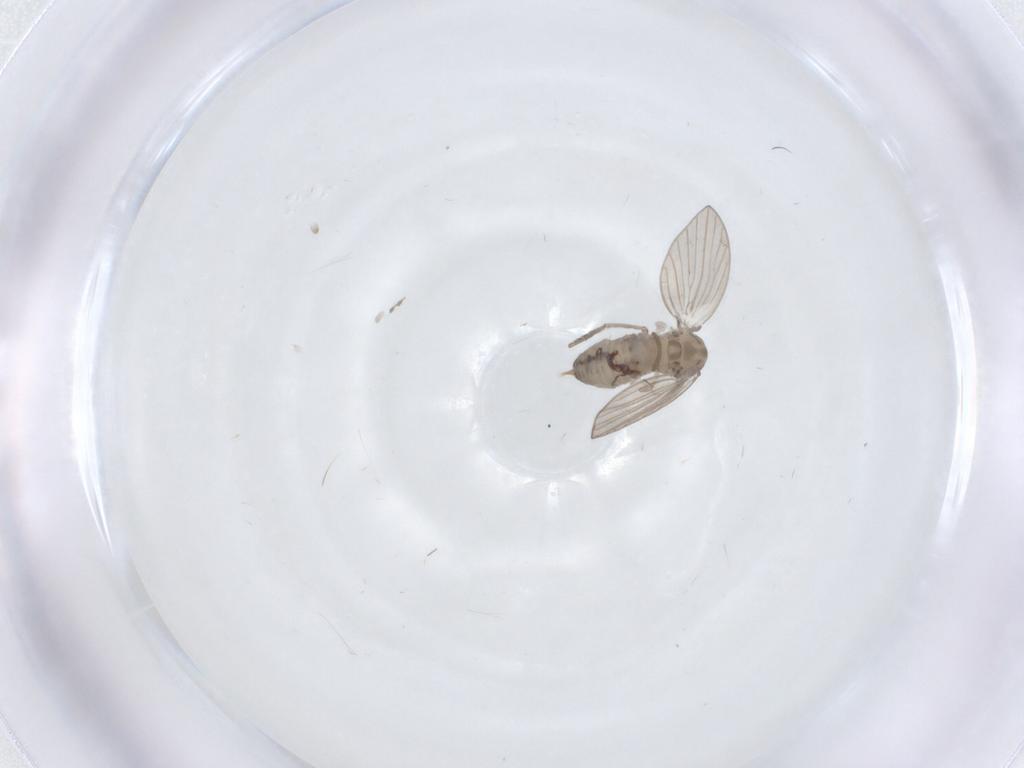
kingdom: Animalia
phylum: Arthropoda
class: Insecta
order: Diptera
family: Psychodidae
